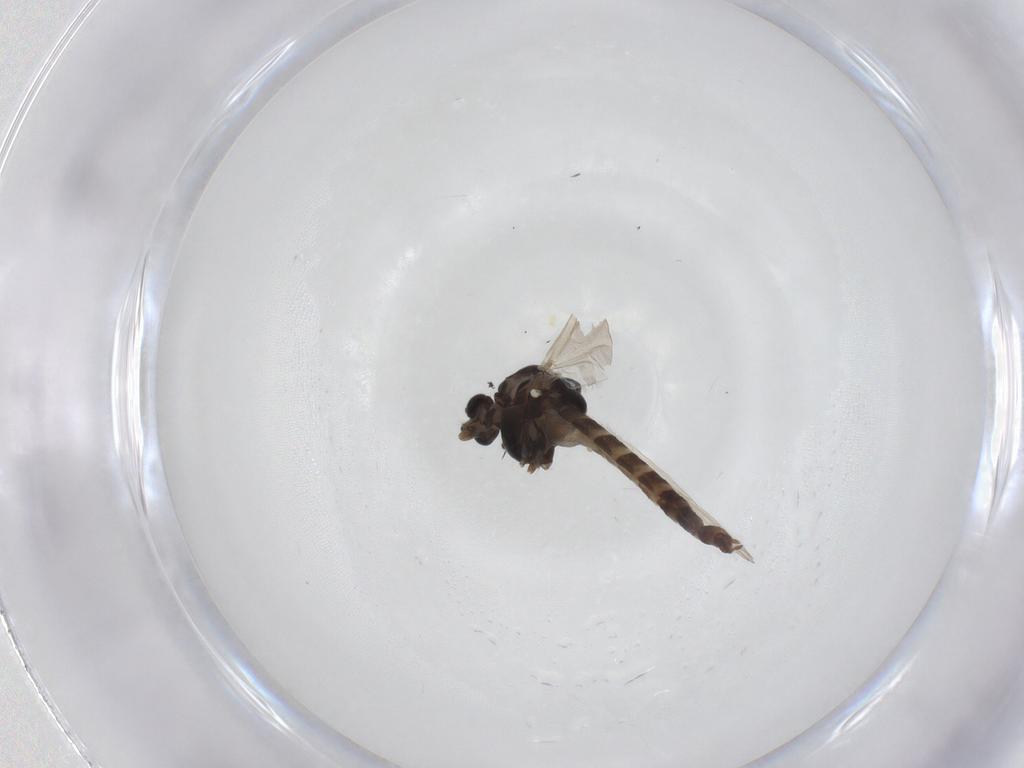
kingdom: Animalia
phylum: Arthropoda
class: Insecta
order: Diptera
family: Chironomidae
